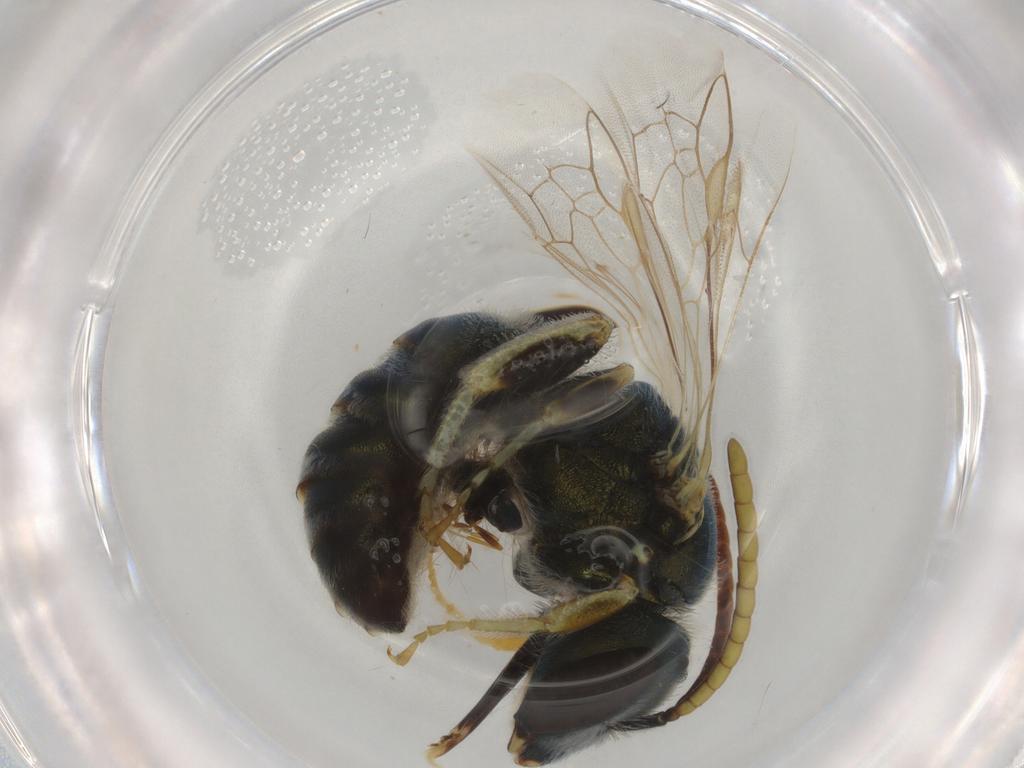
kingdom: Animalia
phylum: Arthropoda
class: Insecta
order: Hymenoptera
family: Halictidae
